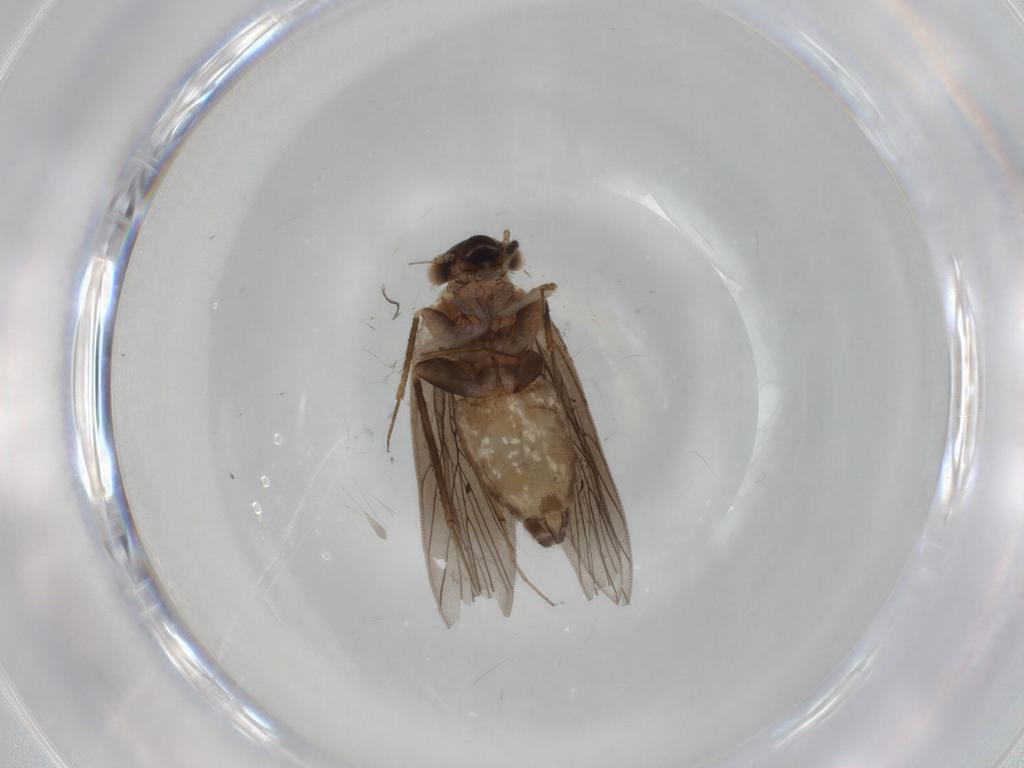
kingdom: Animalia
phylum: Arthropoda
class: Insecta
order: Psocodea
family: Lepidopsocidae
